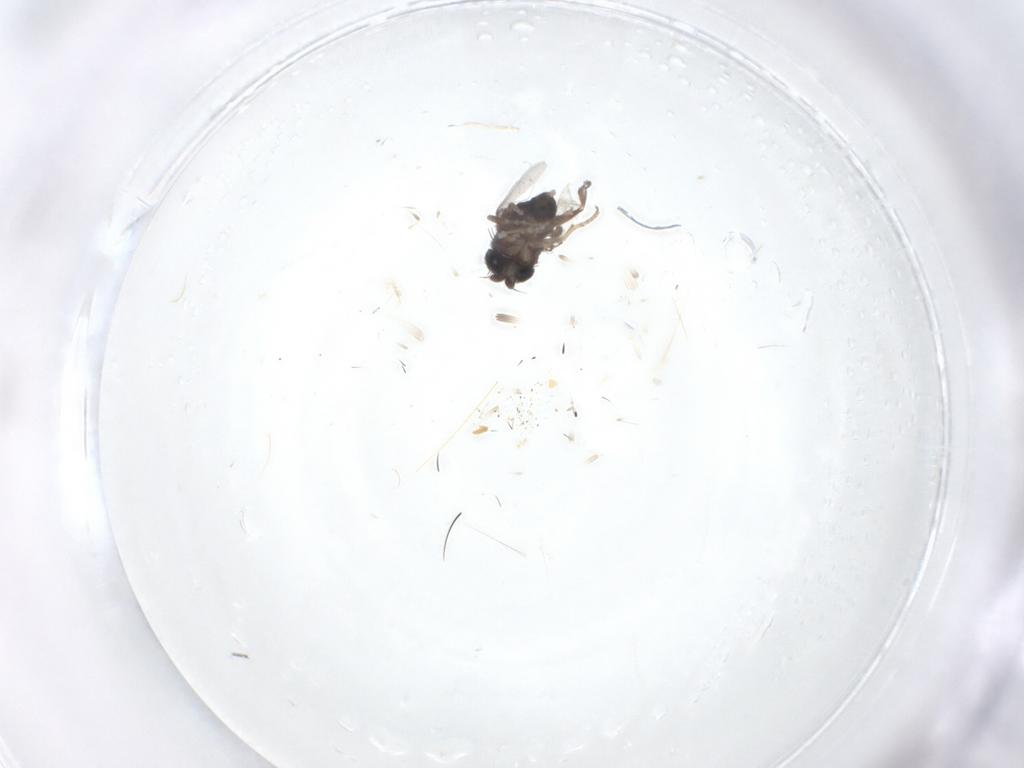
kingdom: Animalia
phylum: Arthropoda
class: Insecta
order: Diptera
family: Phoridae
